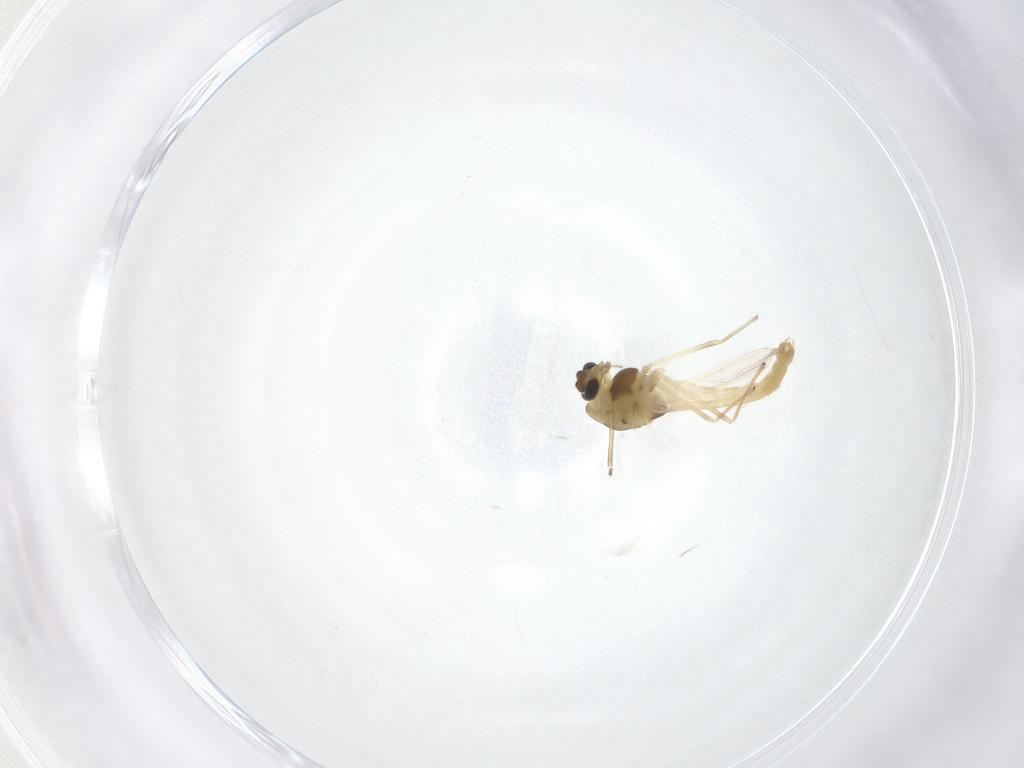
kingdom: Animalia
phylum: Arthropoda
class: Insecta
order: Diptera
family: Chironomidae
